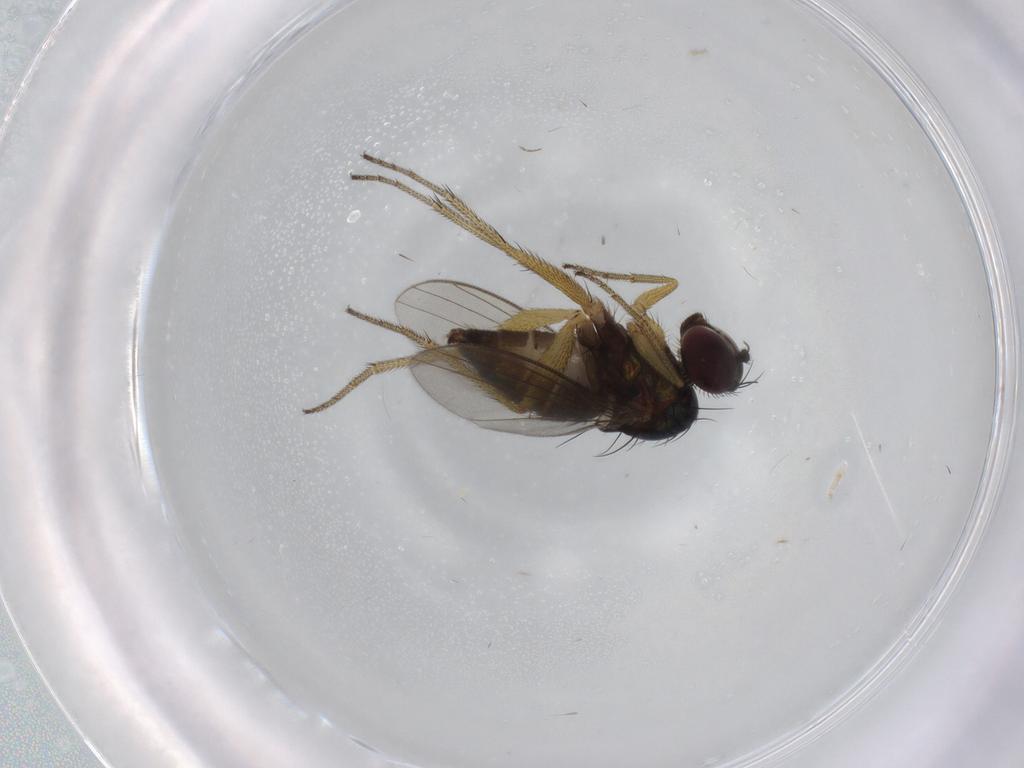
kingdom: Animalia
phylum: Arthropoda
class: Insecta
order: Diptera
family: Dolichopodidae
